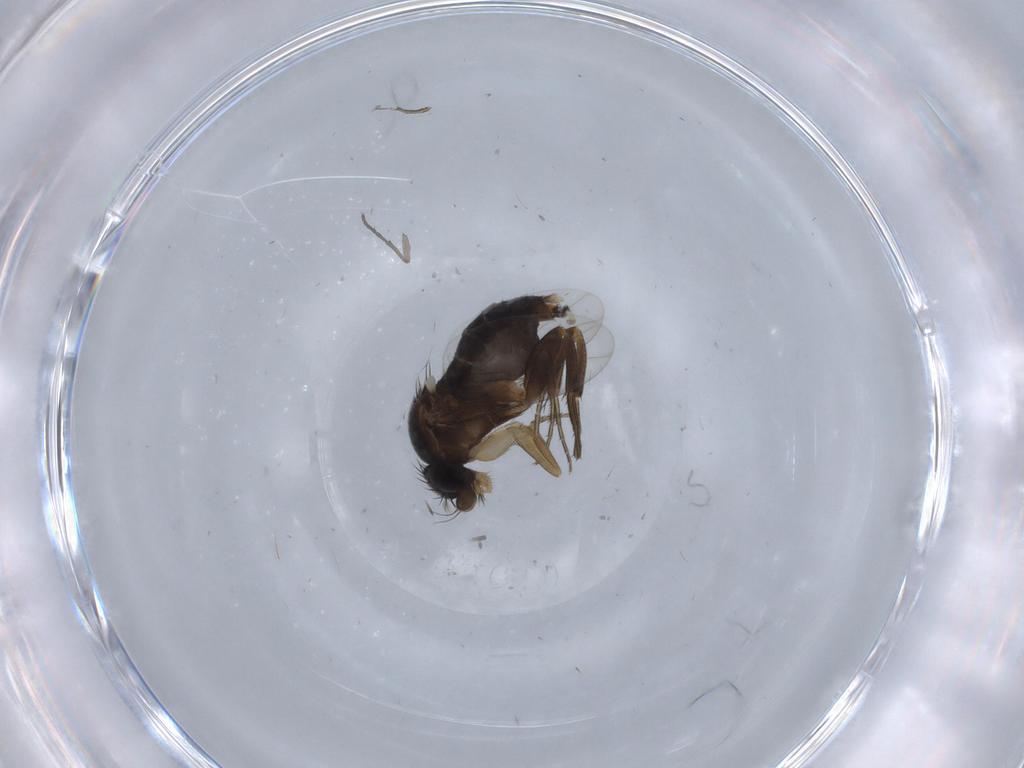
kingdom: Animalia
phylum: Arthropoda
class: Insecta
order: Diptera
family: Phoridae
